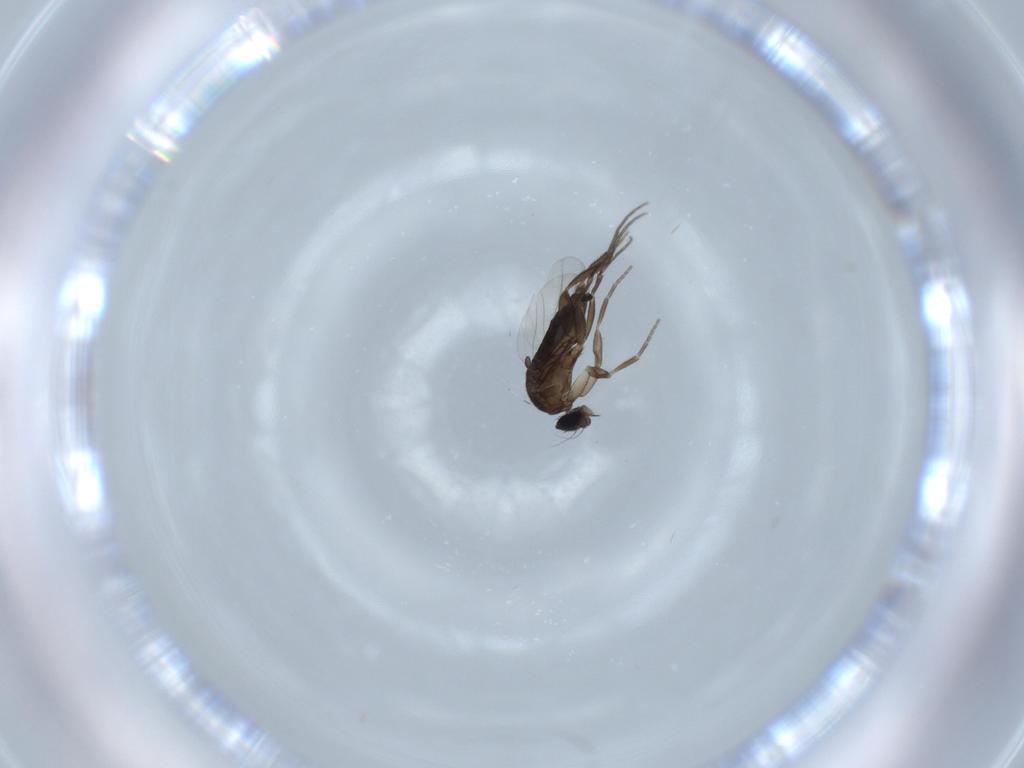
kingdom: Animalia
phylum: Arthropoda
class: Insecta
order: Diptera
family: Phoridae
